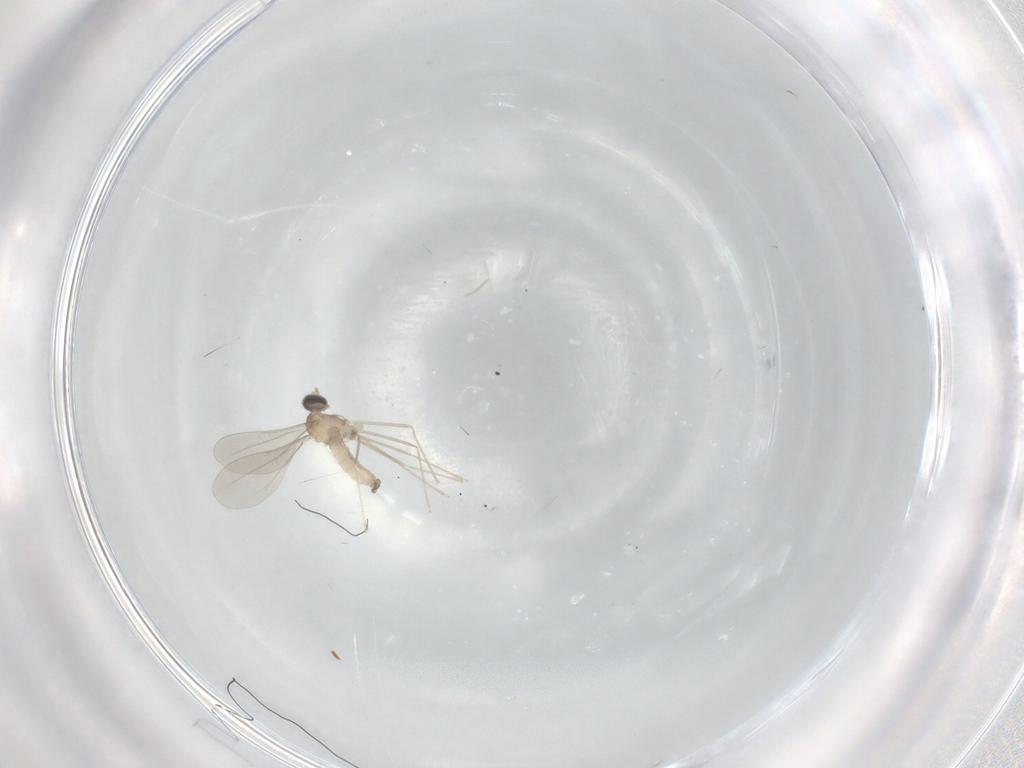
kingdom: Animalia
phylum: Arthropoda
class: Insecta
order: Diptera
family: Cecidomyiidae
